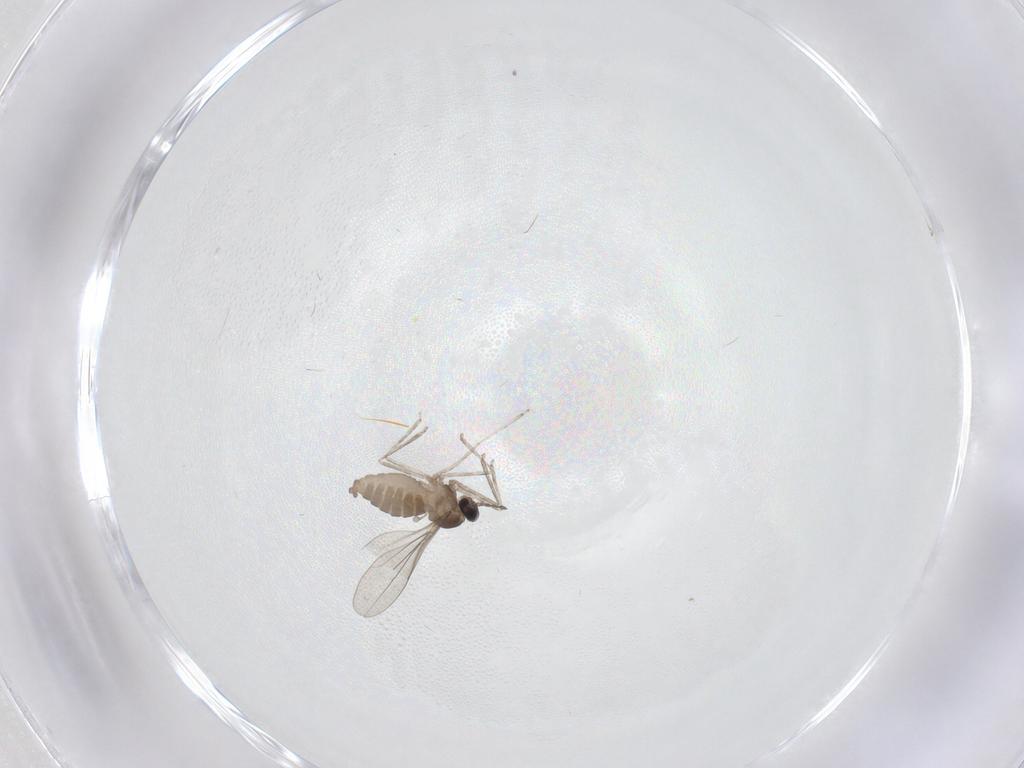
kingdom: Animalia
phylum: Arthropoda
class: Insecta
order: Diptera
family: Cecidomyiidae
